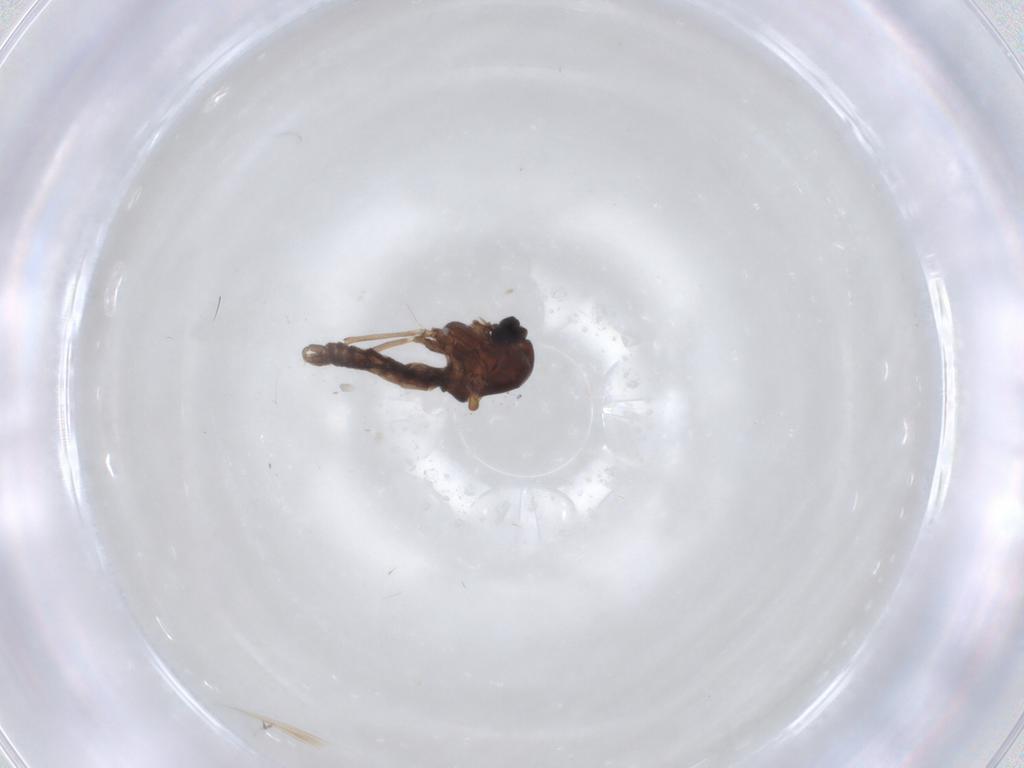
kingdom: Animalia
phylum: Arthropoda
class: Insecta
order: Diptera
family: Ceratopogonidae
